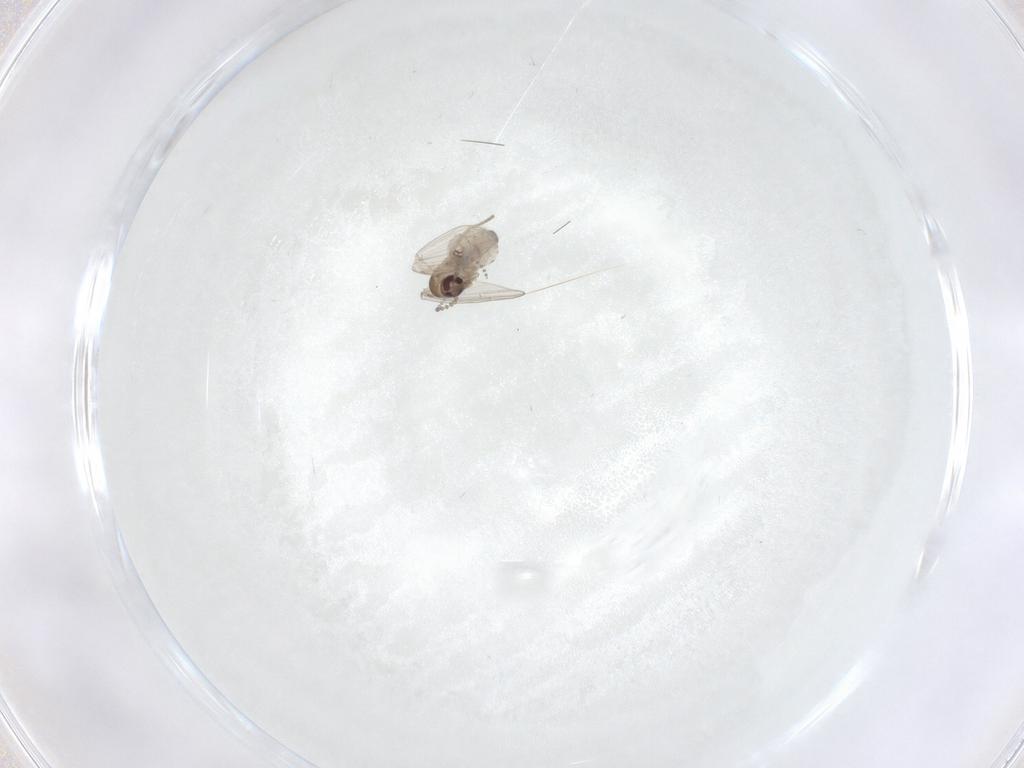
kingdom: Animalia
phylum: Arthropoda
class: Insecta
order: Diptera
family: Psychodidae
